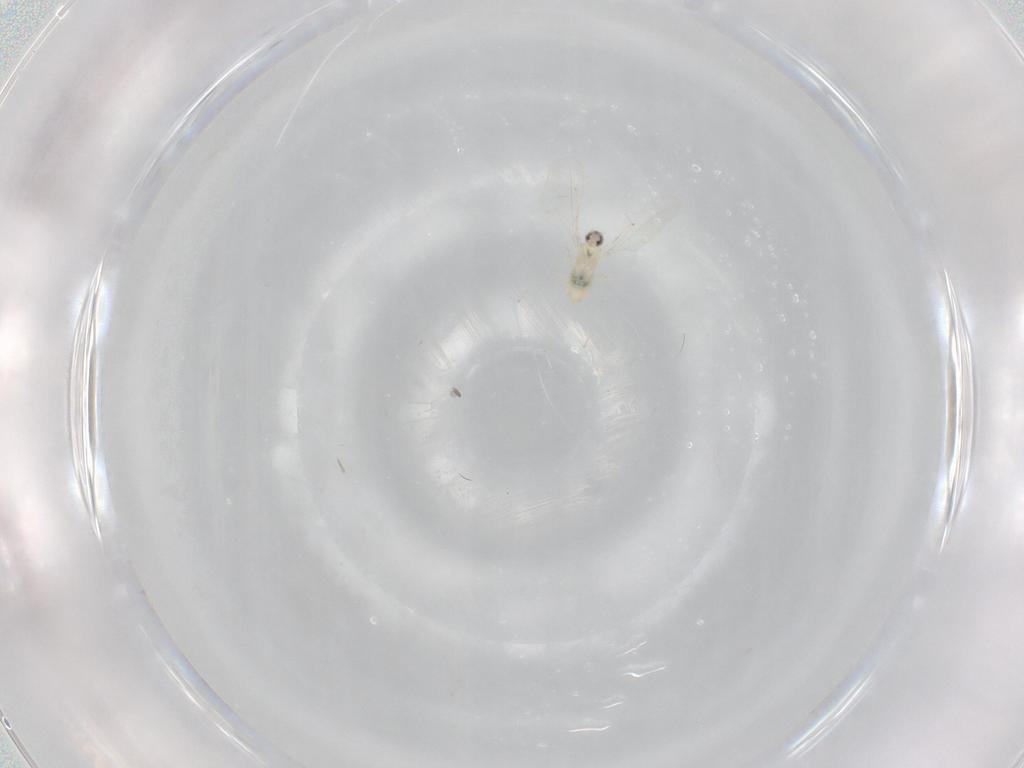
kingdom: Animalia
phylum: Arthropoda
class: Insecta
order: Diptera
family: Cecidomyiidae
